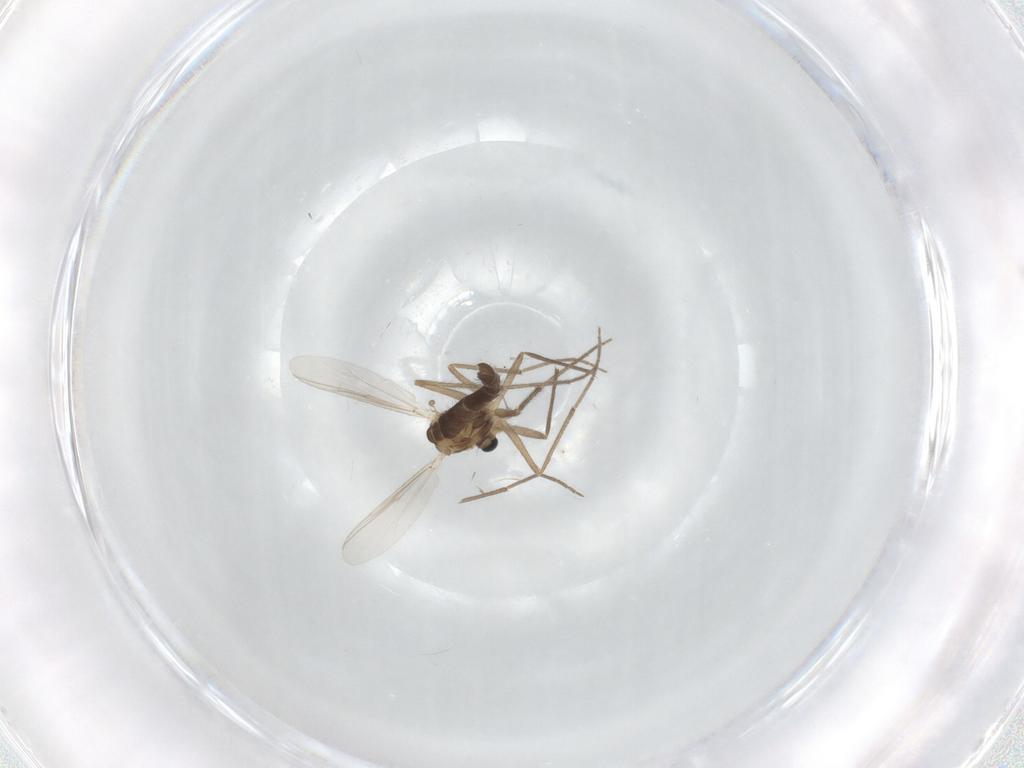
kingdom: Animalia
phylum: Arthropoda
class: Insecta
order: Diptera
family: Chironomidae
